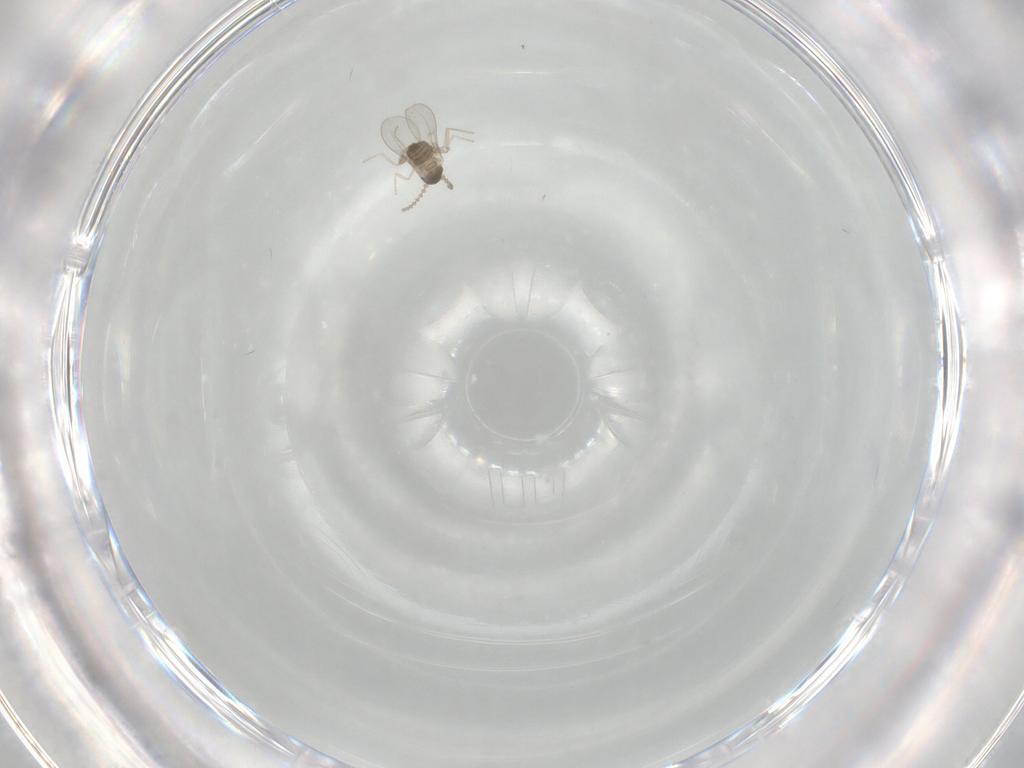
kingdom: Animalia
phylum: Arthropoda
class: Insecta
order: Diptera
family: Cecidomyiidae
